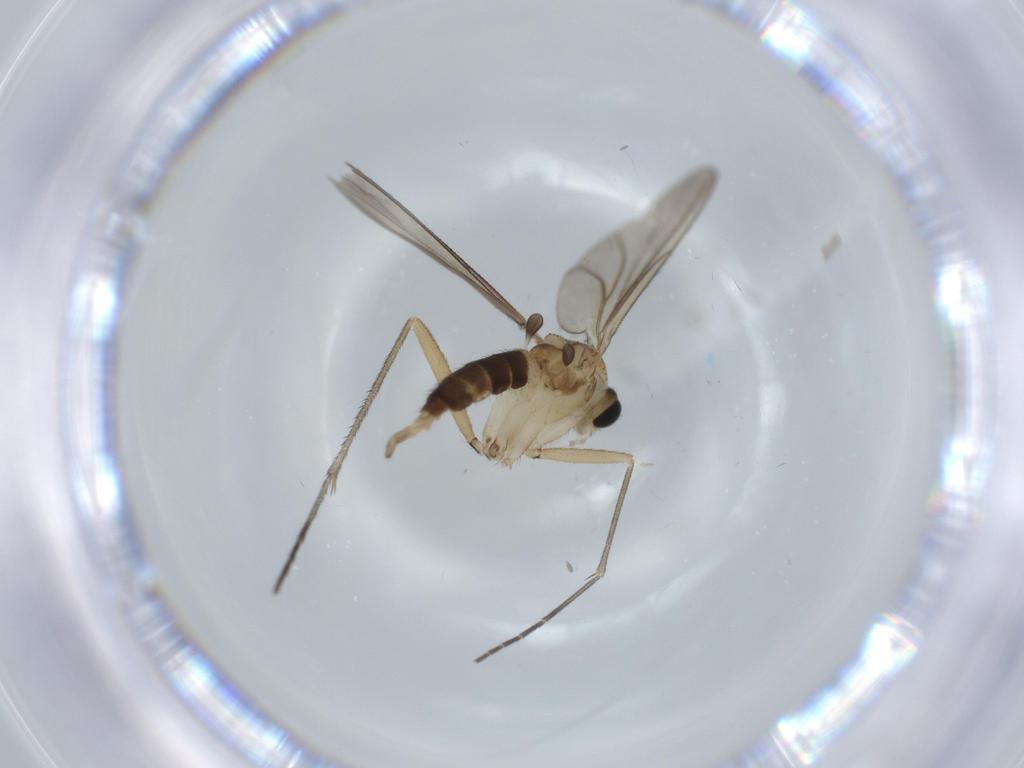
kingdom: Animalia
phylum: Arthropoda
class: Insecta
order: Diptera
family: Sciaridae
